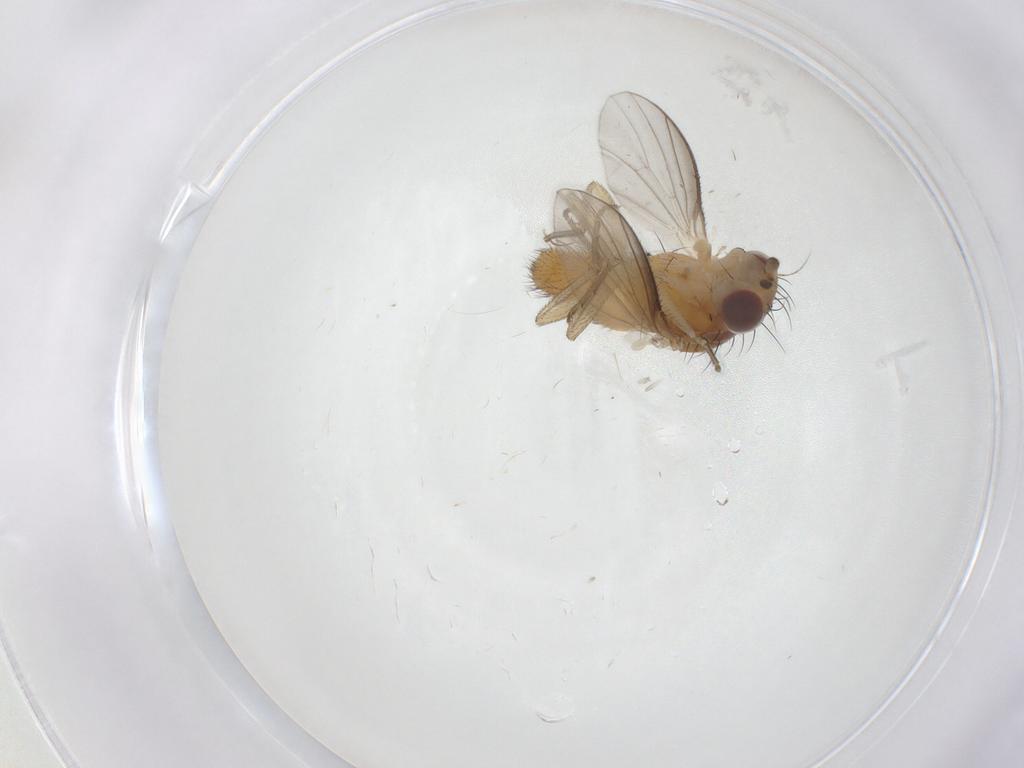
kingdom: Animalia
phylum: Arthropoda
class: Insecta
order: Diptera
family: Heleomyzidae
